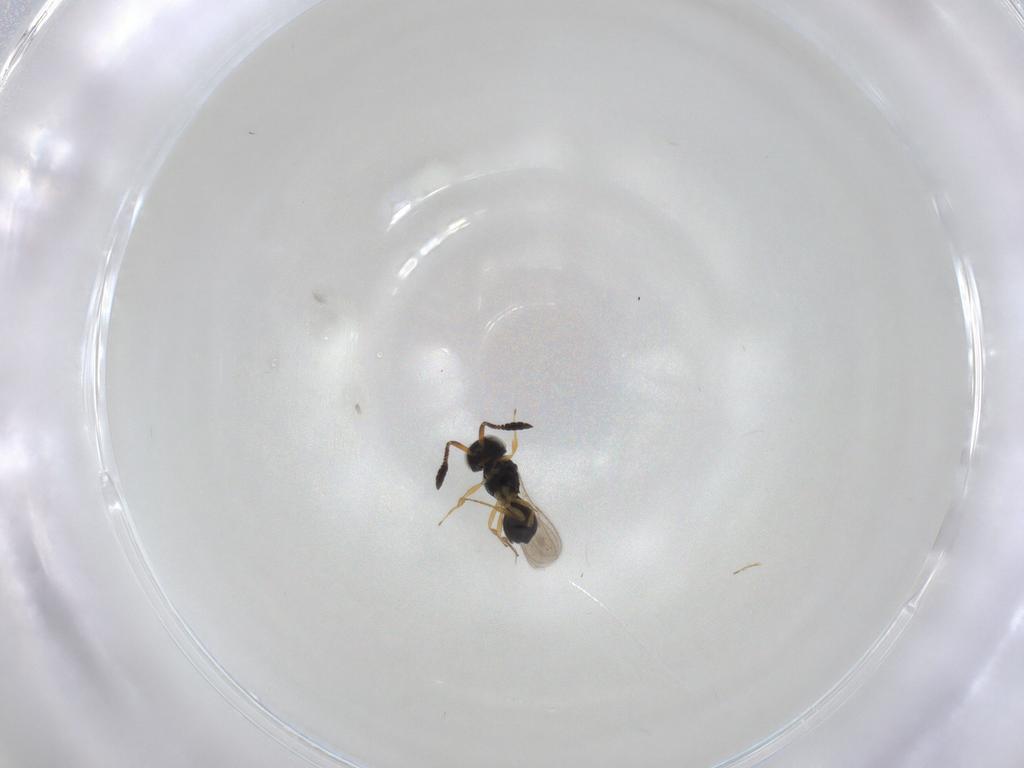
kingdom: Animalia
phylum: Arthropoda
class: Insecta
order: Hymenoptera
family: Scelionidae
